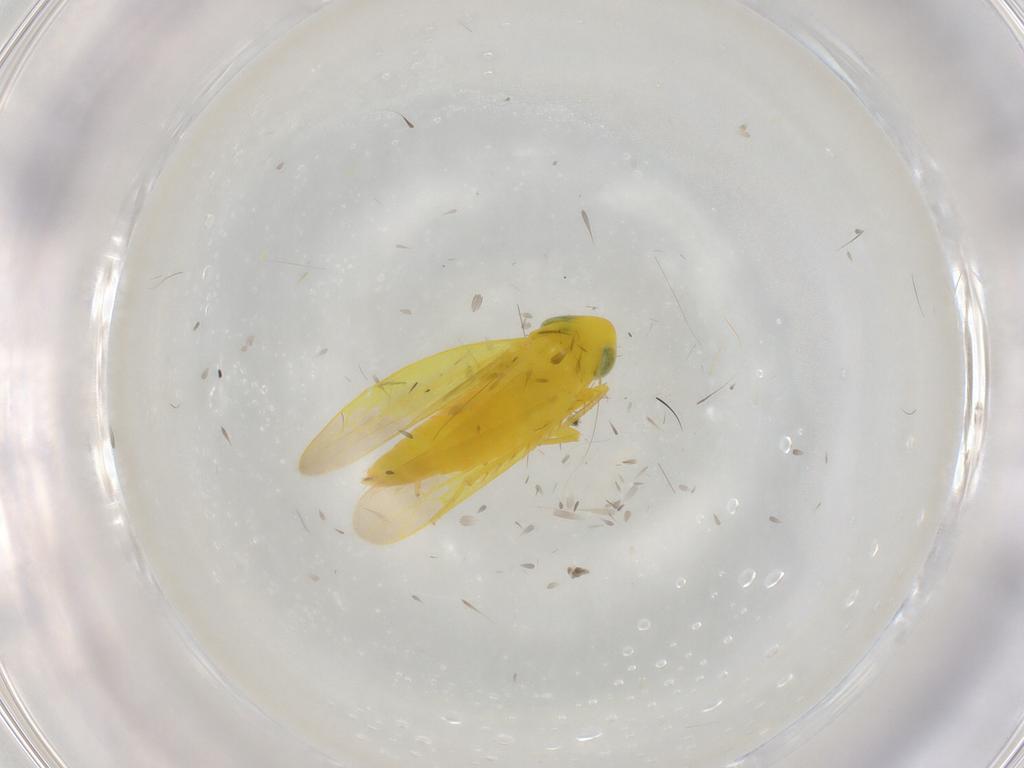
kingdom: Animalia
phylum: Arthropoda
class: Insecta
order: Hemiptera
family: Cicadellidae
